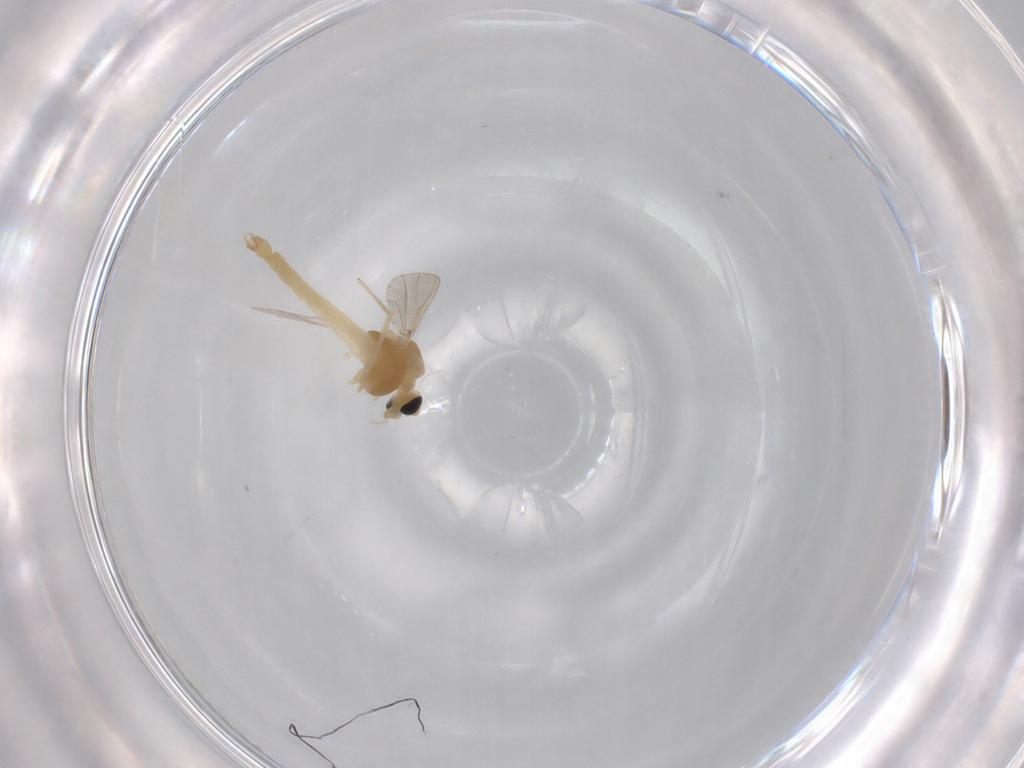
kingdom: Animalia
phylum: Arthropoda
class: Insecta
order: Diptera
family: Chironomidae
